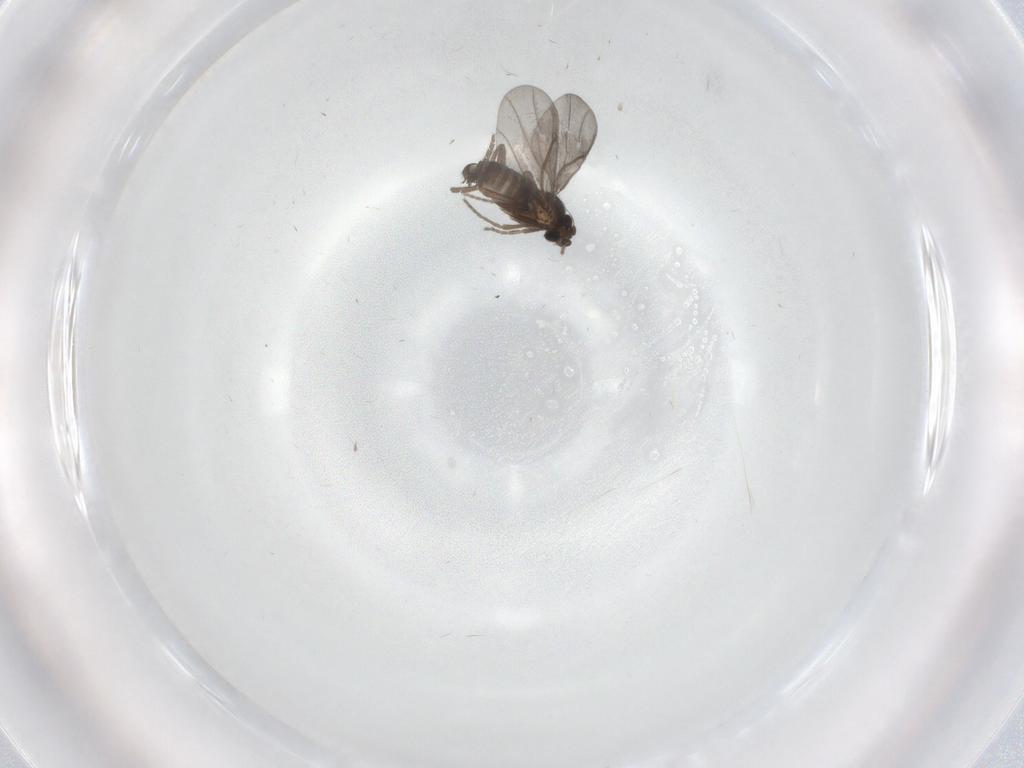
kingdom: Animalia
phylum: Arthropoda
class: Insecta
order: Diptera
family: Phoridae
